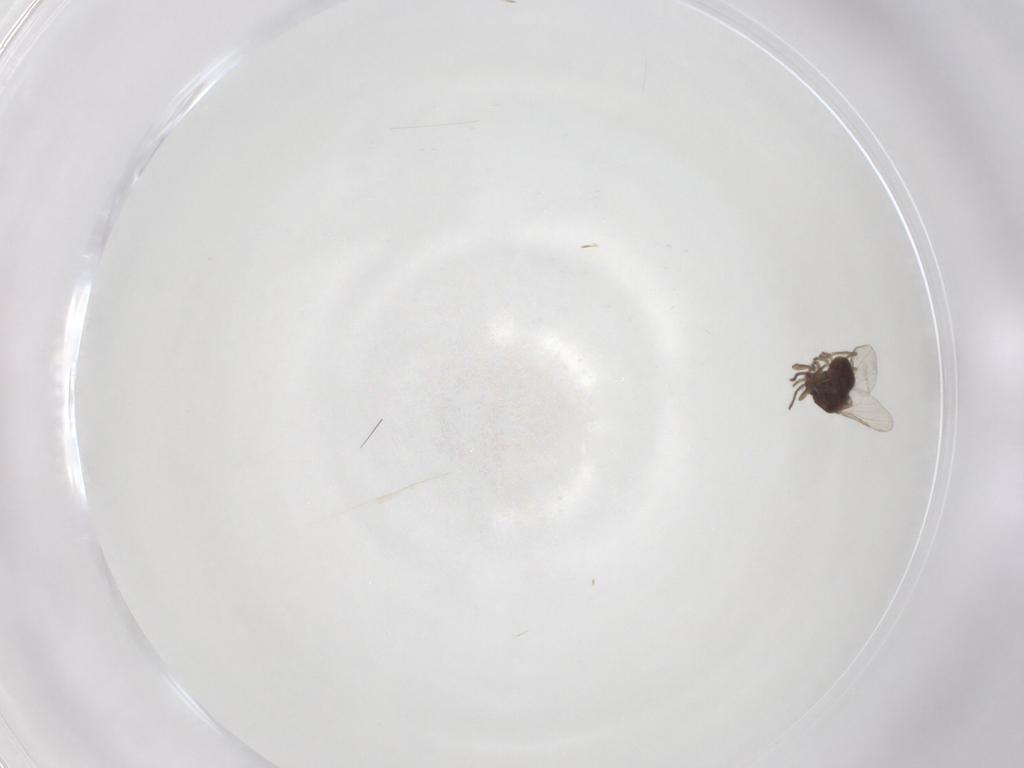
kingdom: Animalia
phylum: Arthropoda
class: Insecta
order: Diptera
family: Ceratopogonidae
